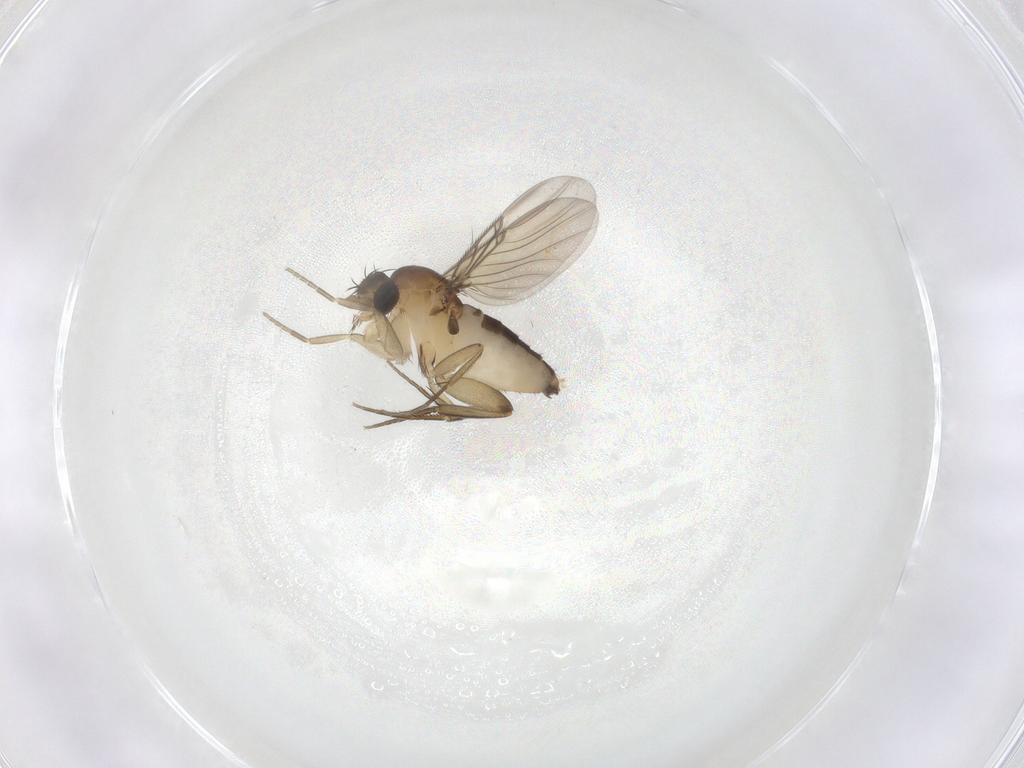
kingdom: Animalia
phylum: Arthropoda
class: Insecta
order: Diptera
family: Phoridae
